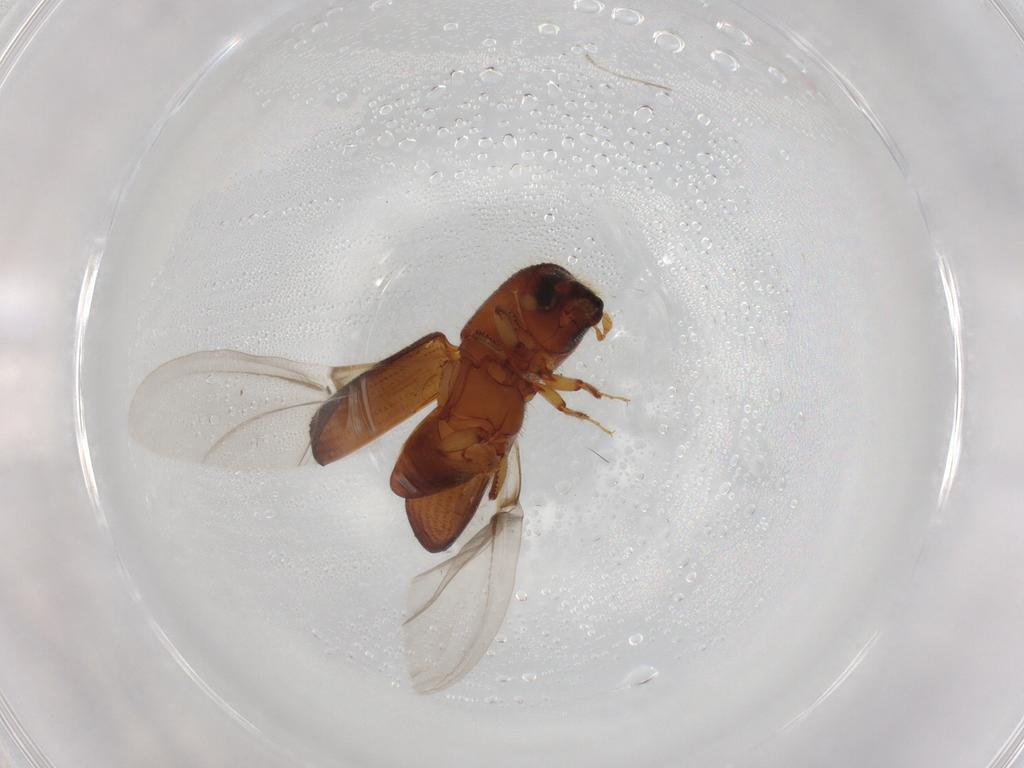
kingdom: Animalia
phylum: Arthropoda
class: Insecta
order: Coleoptera
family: Curculionidae
